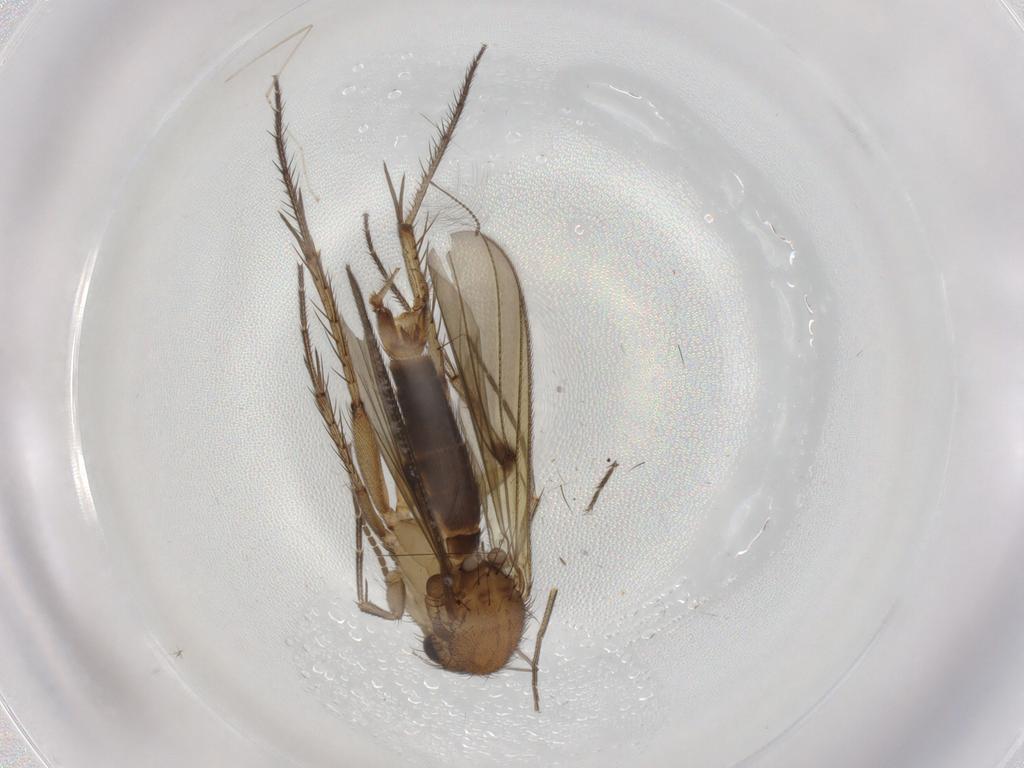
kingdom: Animalia
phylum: Arthropoda
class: Insecta
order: Diptera
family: Mycetophilidae
